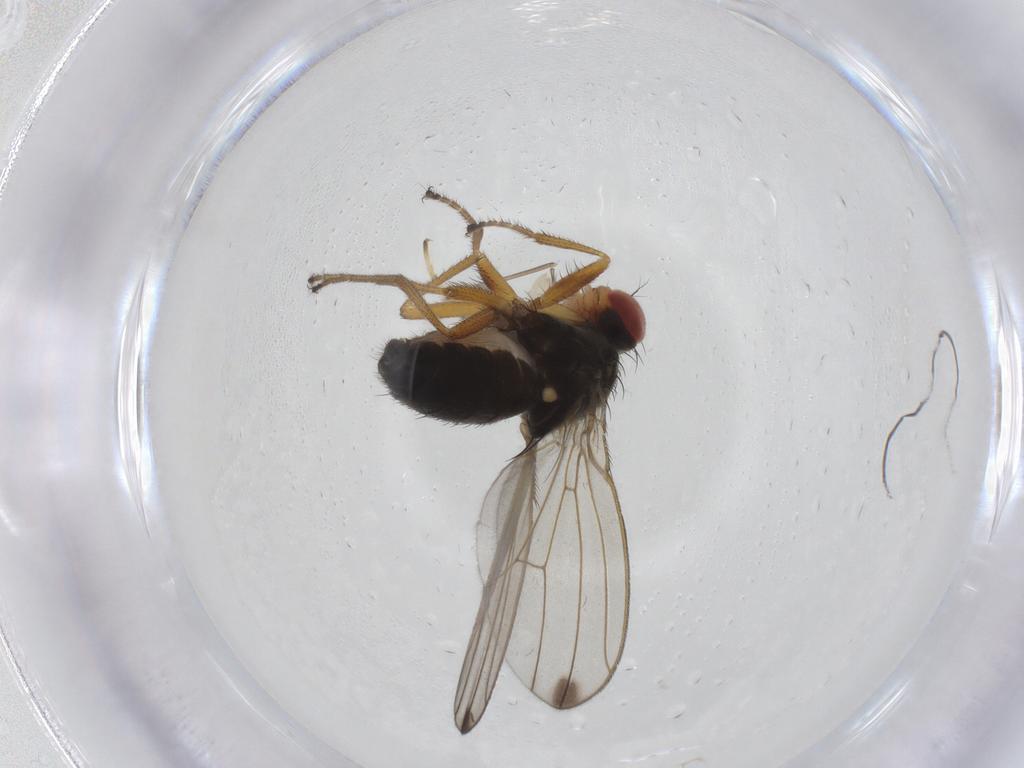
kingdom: Animalia
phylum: Arthropoda
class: Insecta
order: Diptera
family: Drosophilidae
